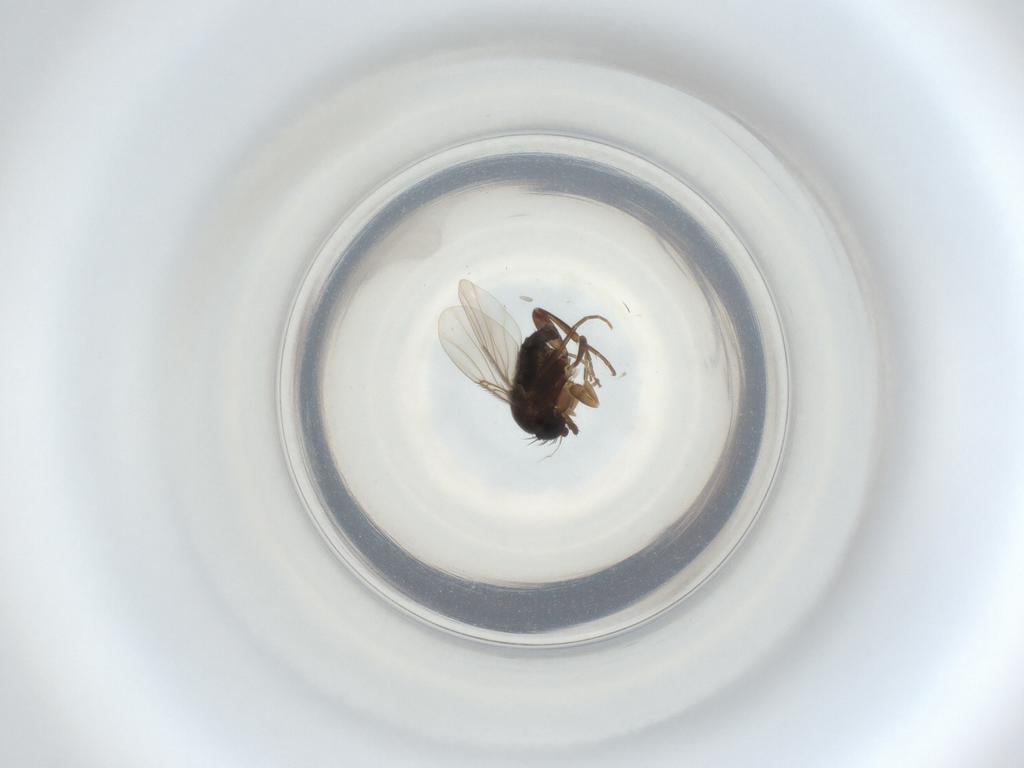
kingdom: Animalia
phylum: Arthropoda
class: Insecta
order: Diptera
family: Phoridae
